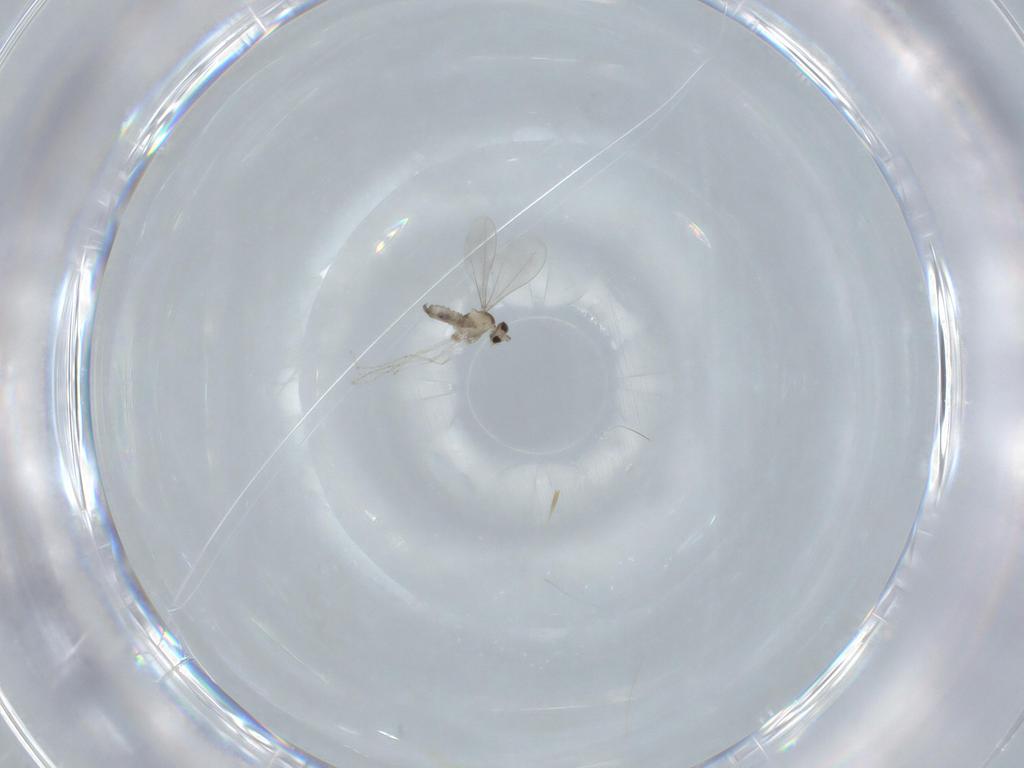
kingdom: Animalia
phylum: Arthropoda
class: Insecta
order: Diptera
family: Cecidomyiidae
